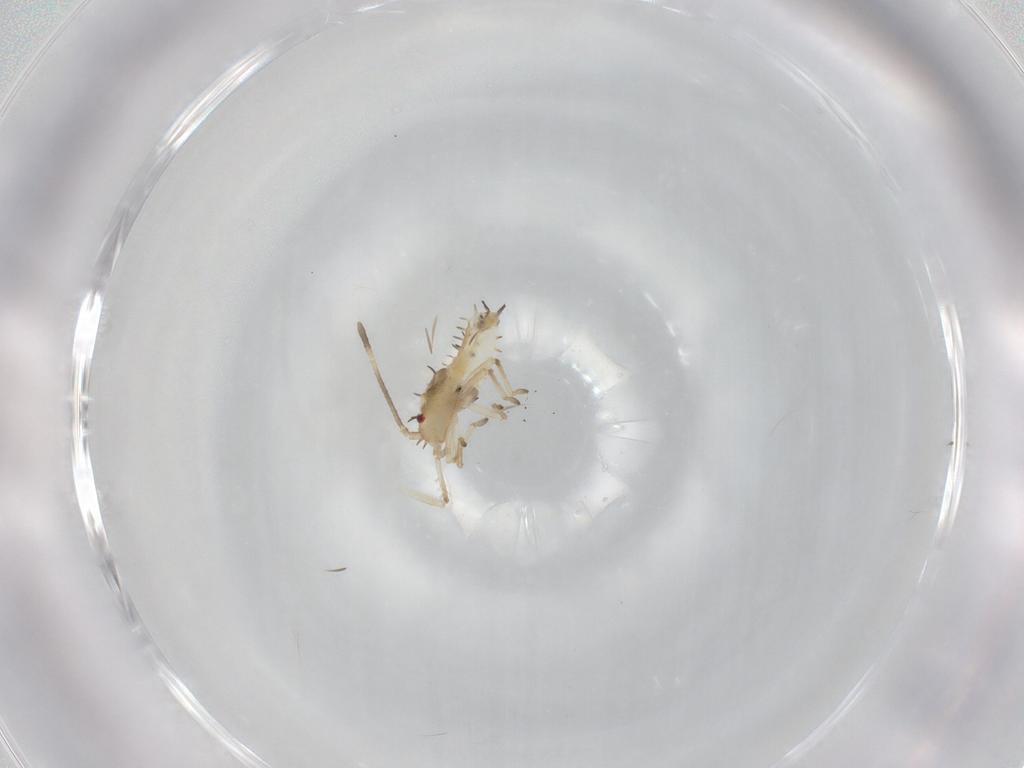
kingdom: Animalia
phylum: Arthropoda
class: Insecta
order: Hemiptera
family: Tingidae
